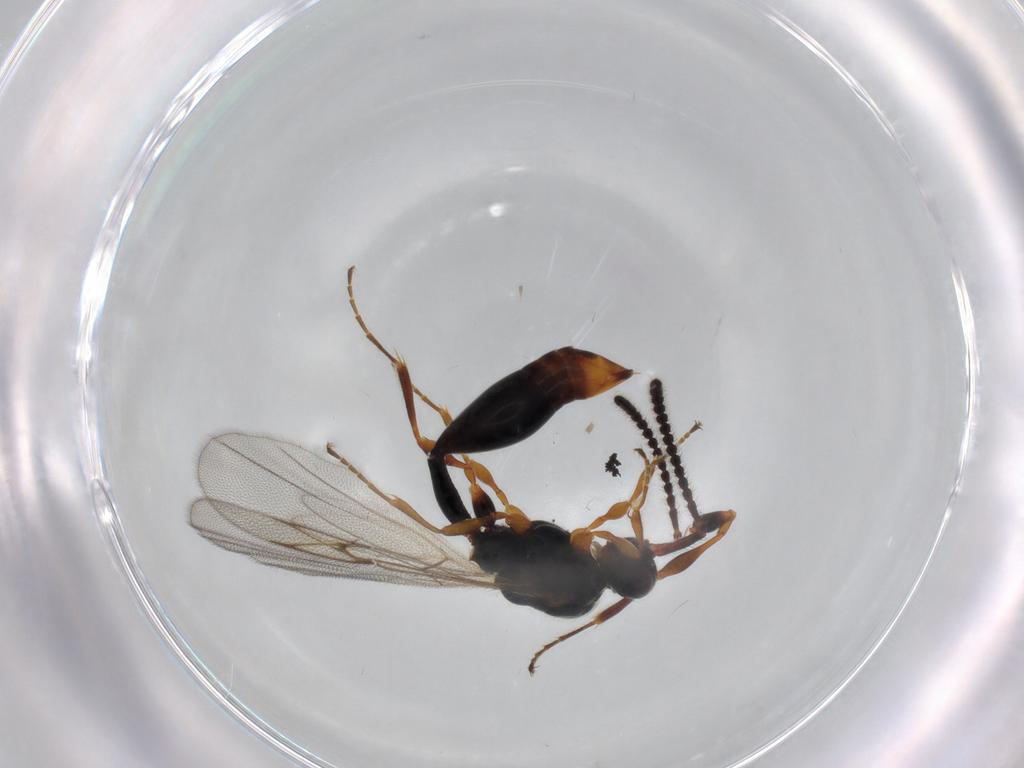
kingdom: Animalia
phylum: Arthropoda
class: Insecta
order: Hymenoptera
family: Diapriidae
